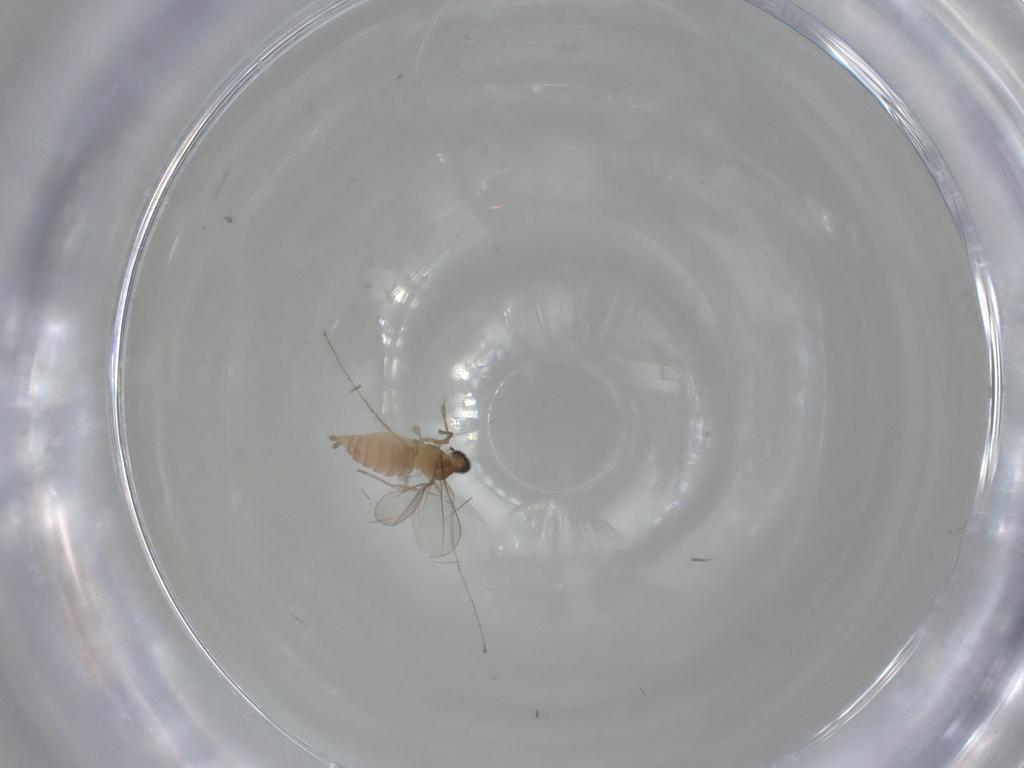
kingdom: Animalia
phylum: Arthropoda
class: Insecta
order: Diptera
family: Cecidomyiidae
